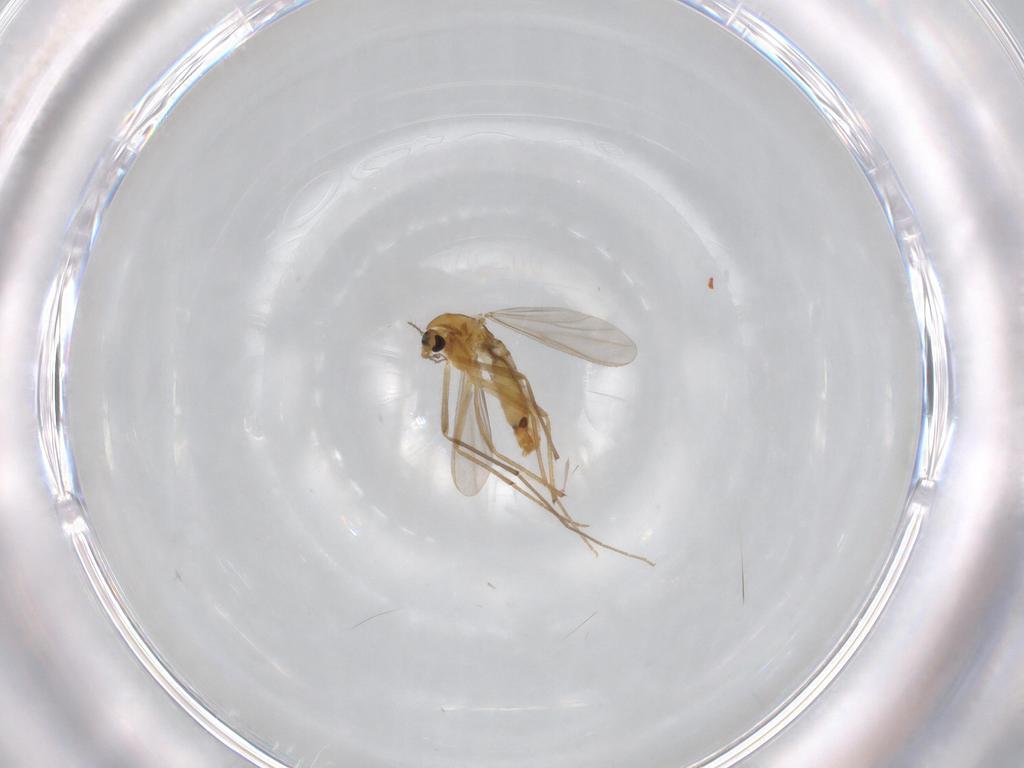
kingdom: Animalia
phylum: Arthropoda
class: Insecta
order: Diptera
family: Chironomidae
